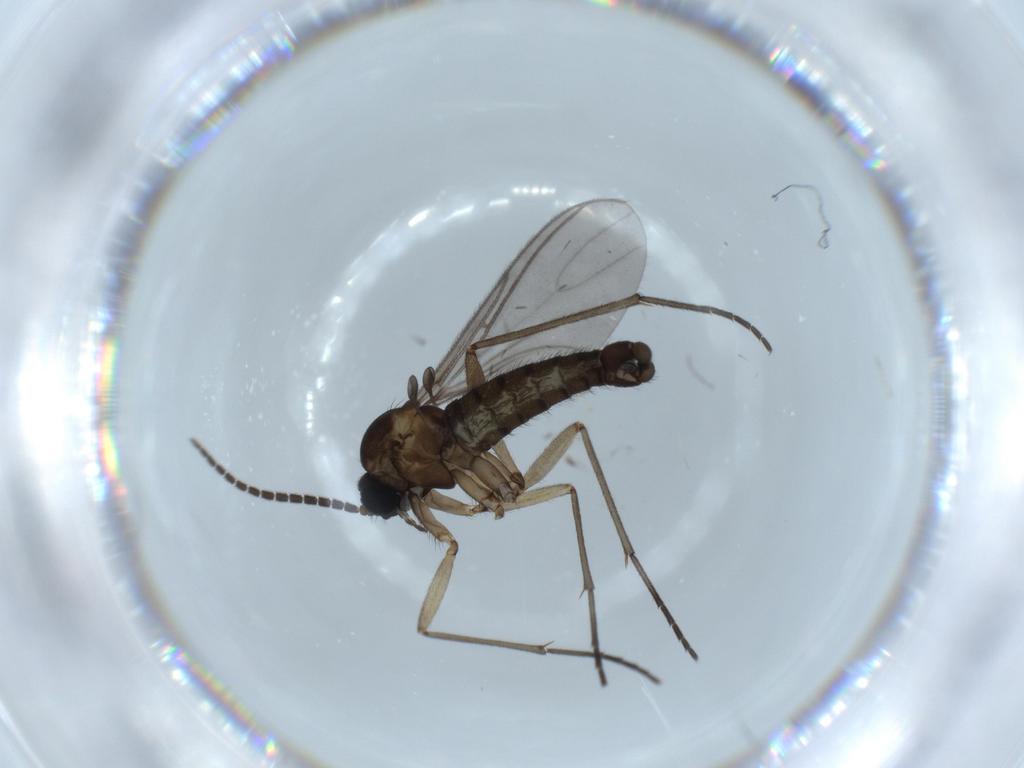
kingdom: Animalia
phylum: Arthropoda
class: Insecta
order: Diptera
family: Sciaridae
